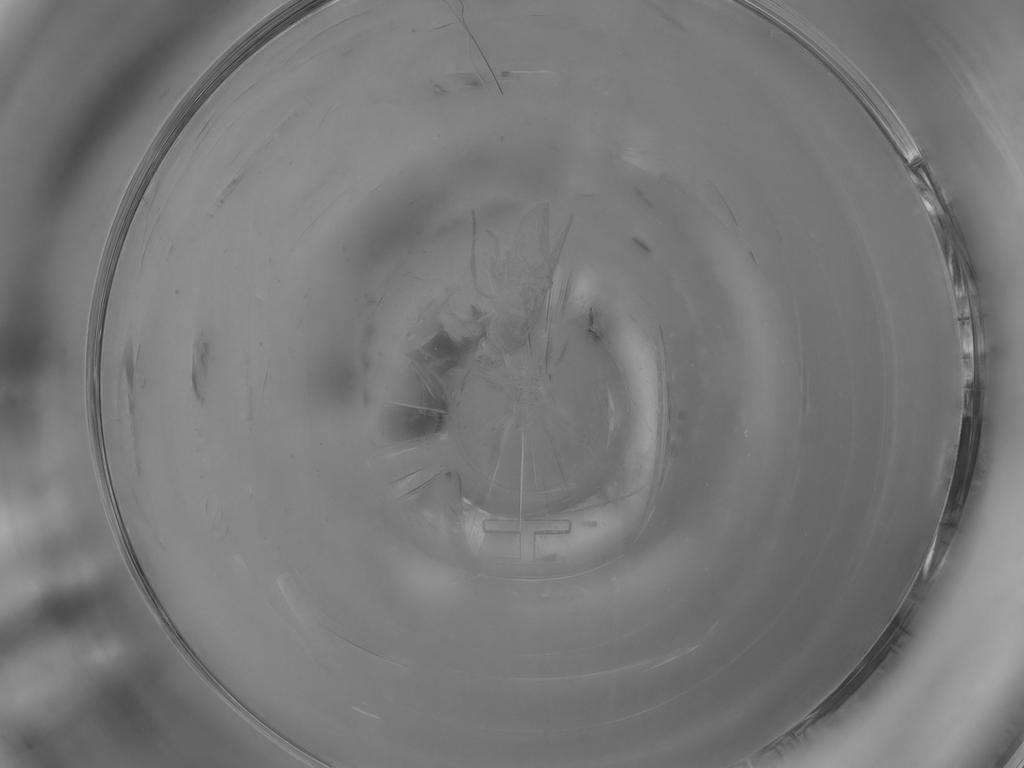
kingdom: Animalia
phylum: Arthropoda
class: Insecta
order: Diptera
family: Phoridae
